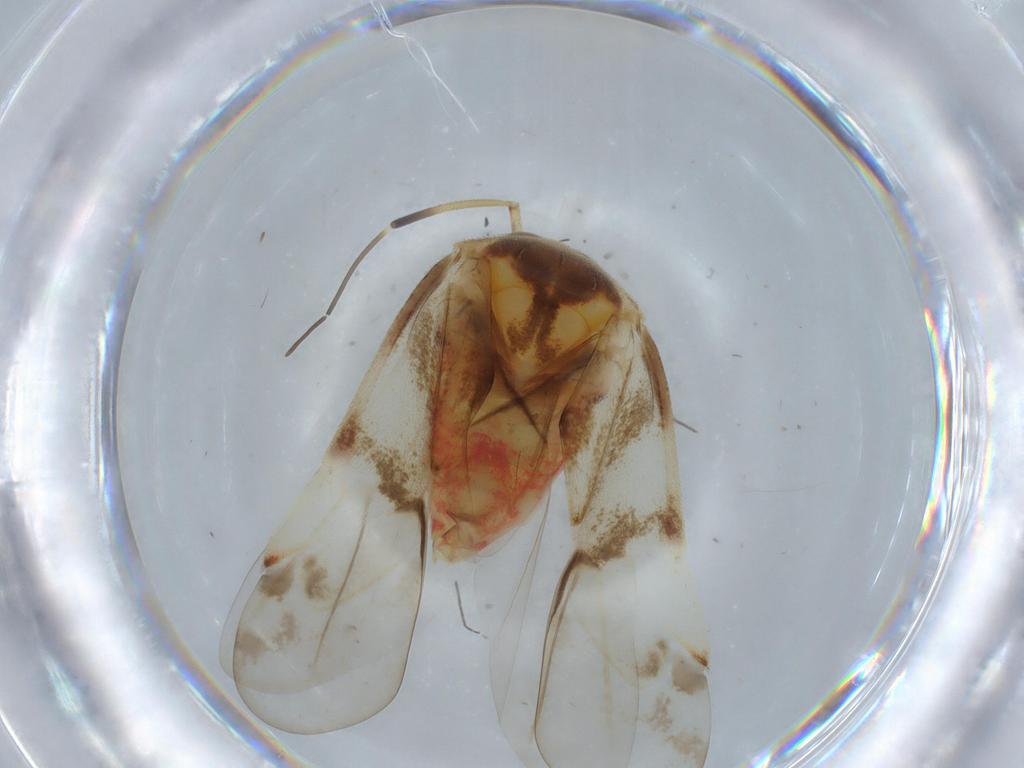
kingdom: Animalia
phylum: Arthropoda
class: Insecta
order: Hemiptera
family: Miridae
